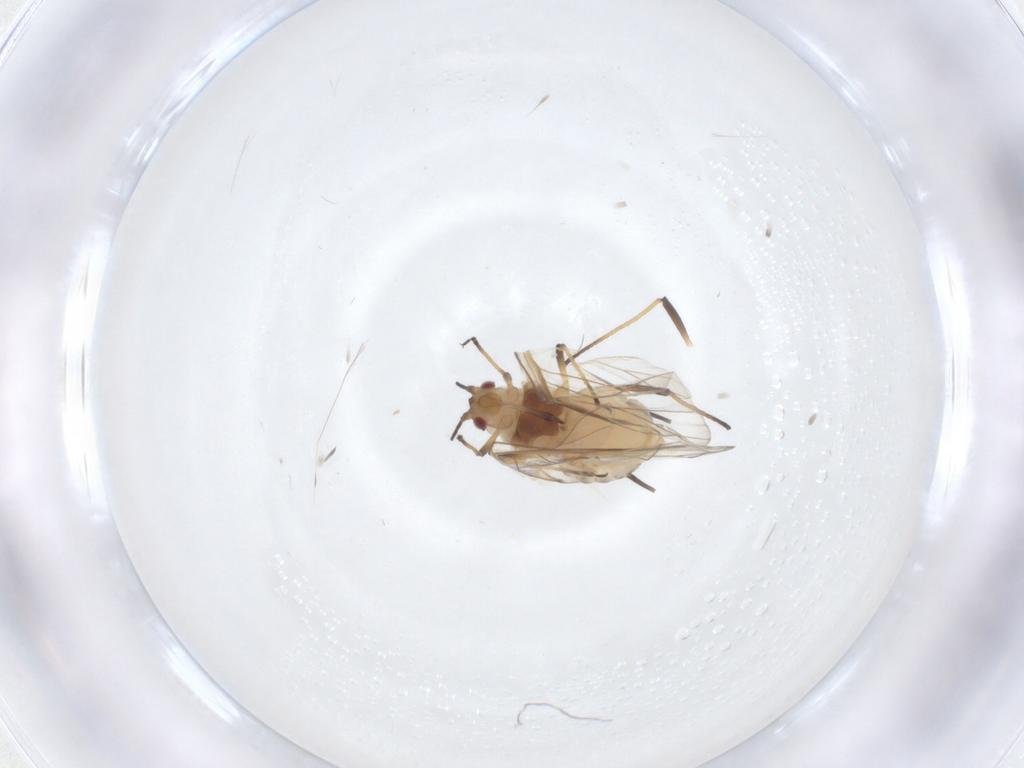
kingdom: Animalia
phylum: Arthropoda
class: Insecta
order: Hemiptera
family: Aphididae
